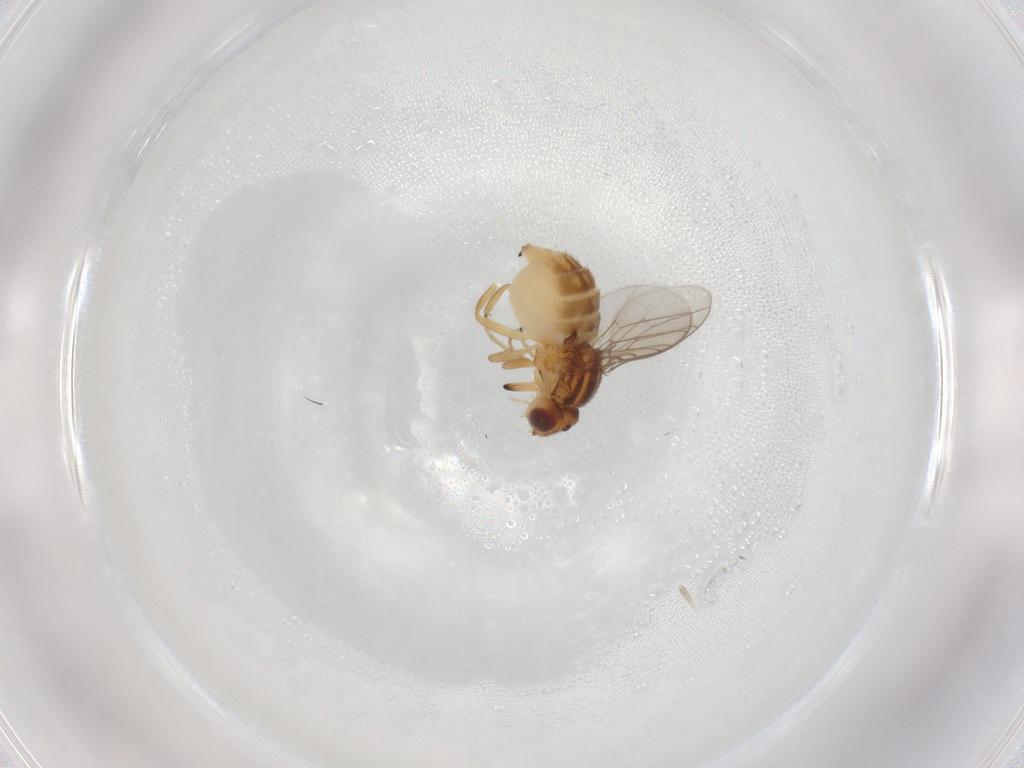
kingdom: Animalia
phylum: Arthropoda
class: Insecta
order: Diptera
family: Chloropidae
